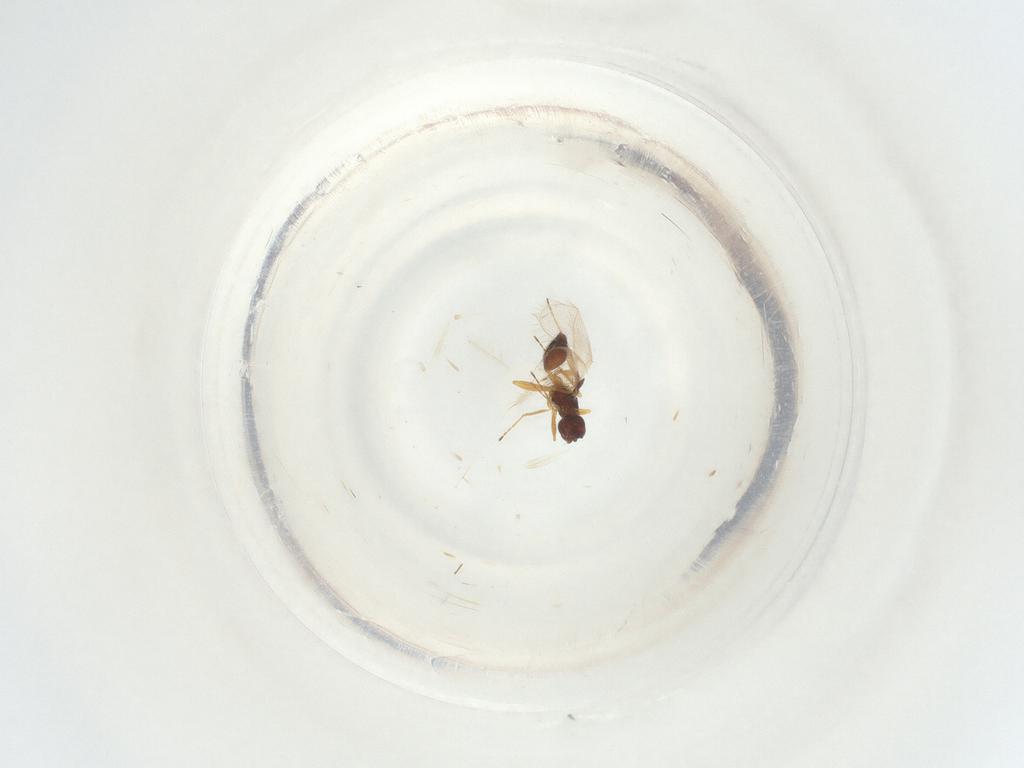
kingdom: Animalia
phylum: Arthropoda
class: Insecta
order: Hymenoptera
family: Mymaridae
